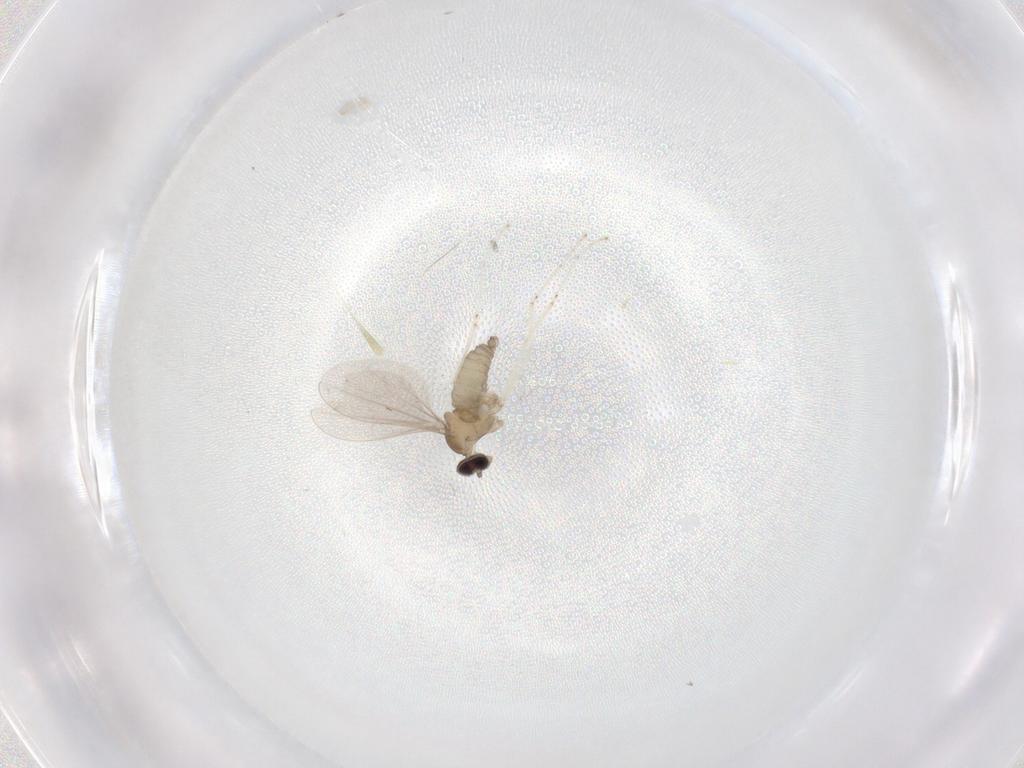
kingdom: Animalia
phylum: Arthropoda
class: Insecta
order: Diptera
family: Cecidomyiidae
